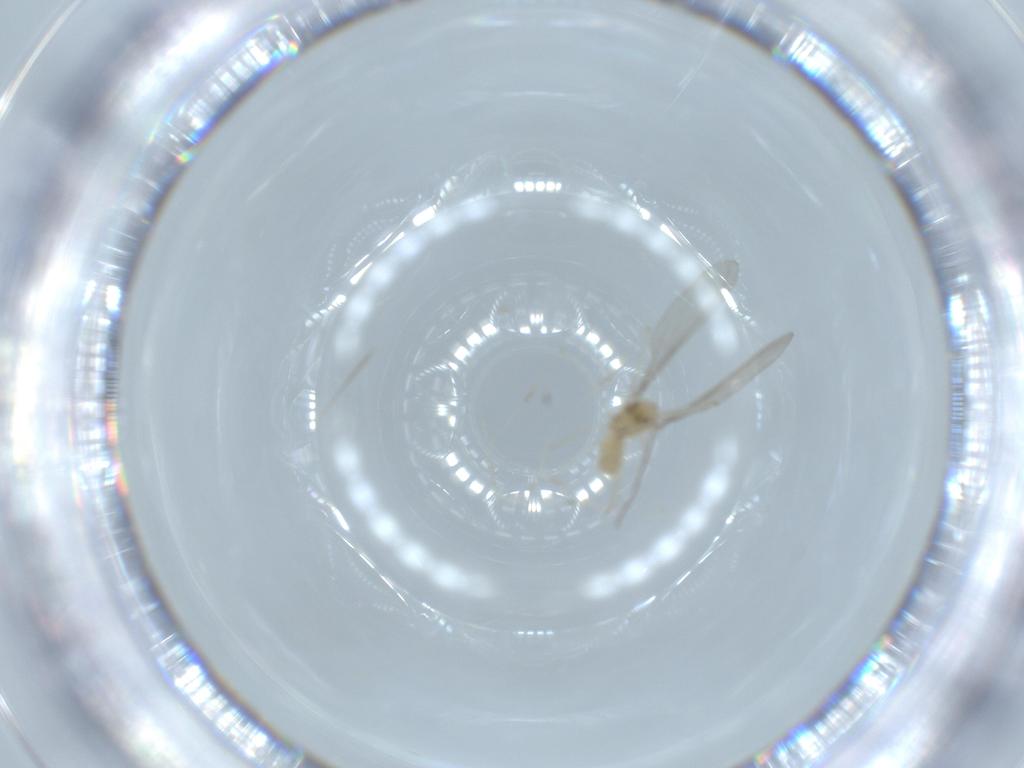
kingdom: Animalia
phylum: Arthropoda
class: Insecta
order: Diptera
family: Cecidomyiidae
